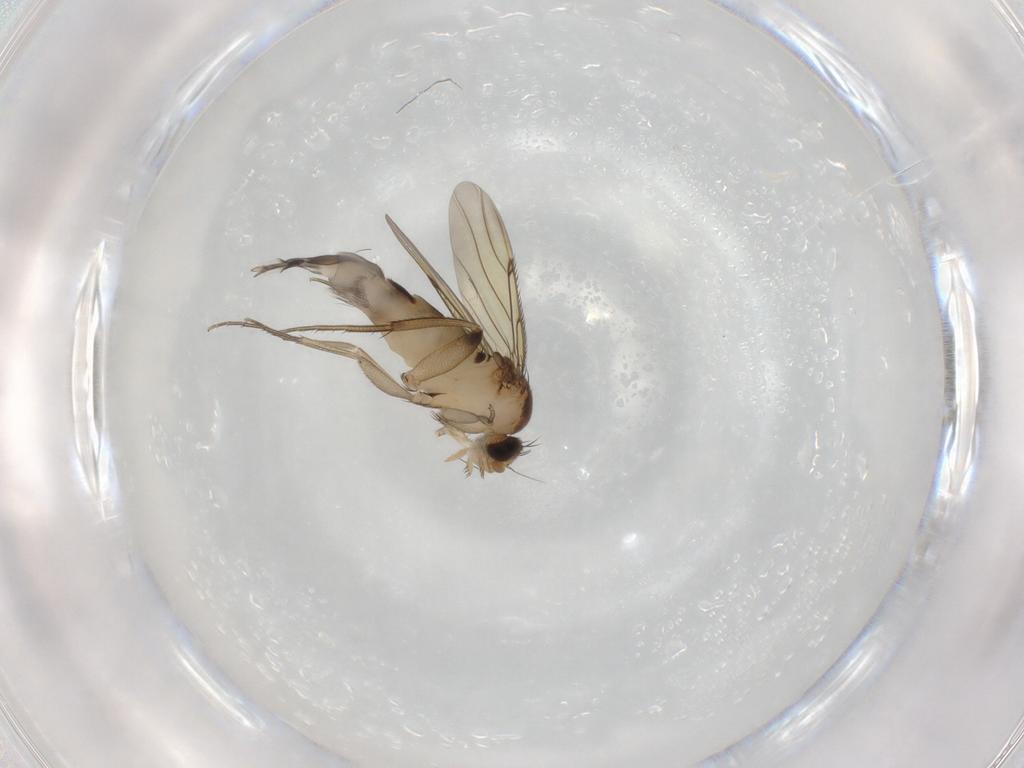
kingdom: Animalia
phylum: Arthropoda
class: Insecta
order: Diptera
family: Phoridae
